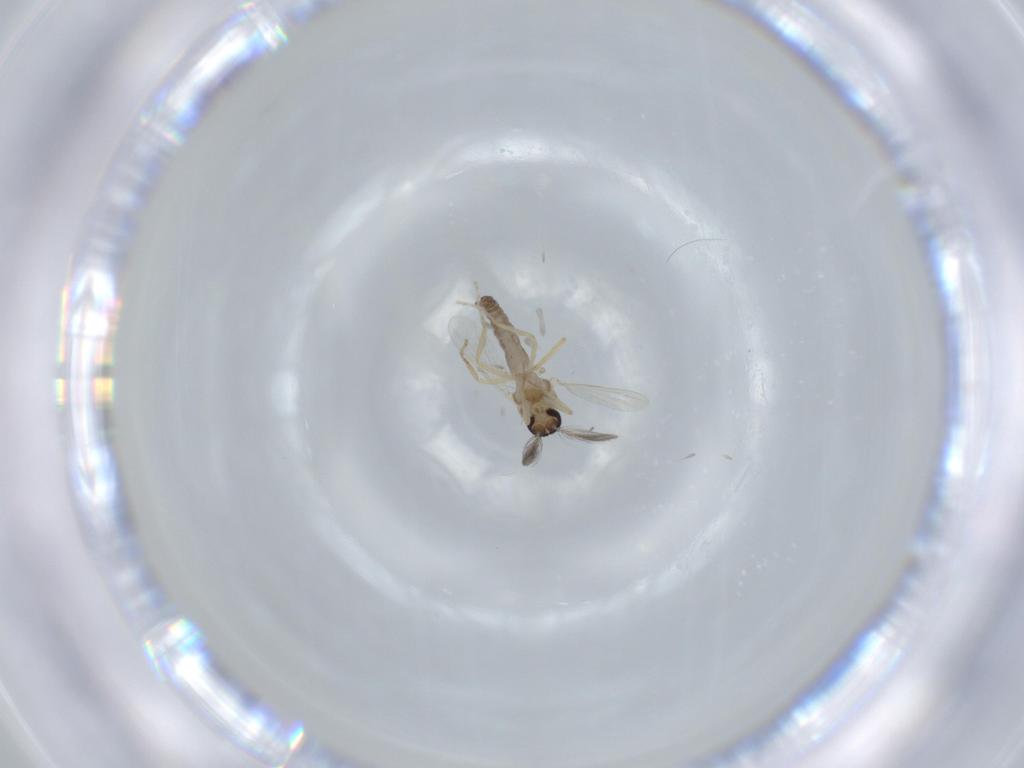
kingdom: Animalia
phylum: Arthropoda
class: Insecta
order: Diptera
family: Ceratopogonidae
